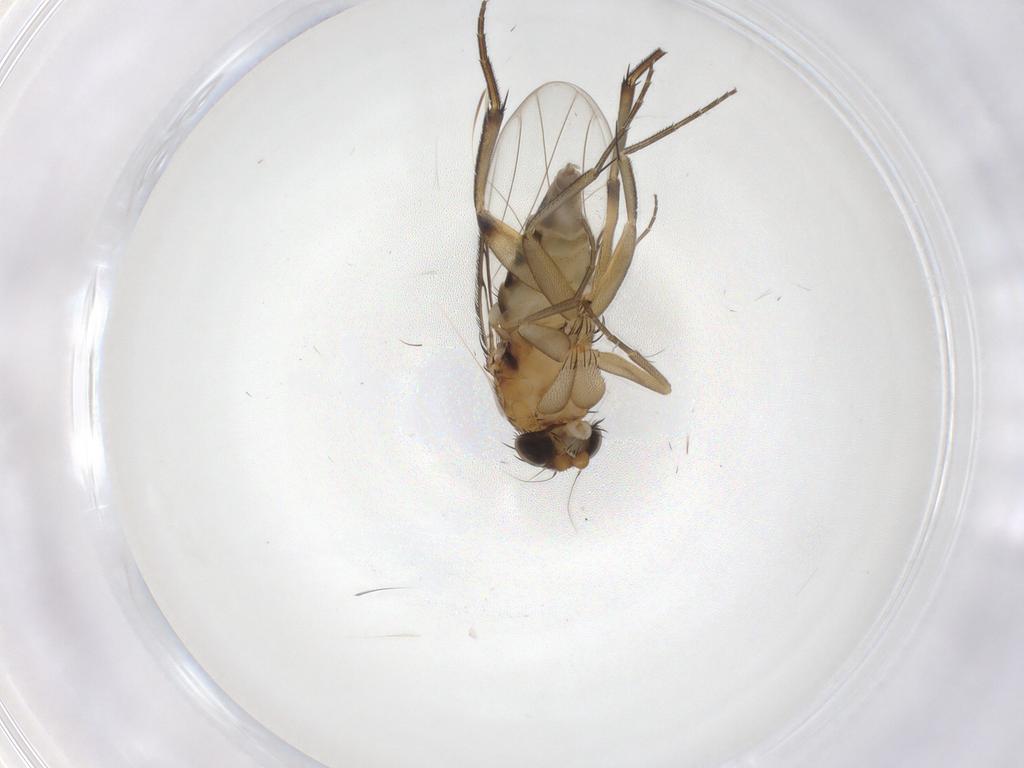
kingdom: Animalia
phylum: Arthropoda
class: Insecta
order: Diptera
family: Phoridae
